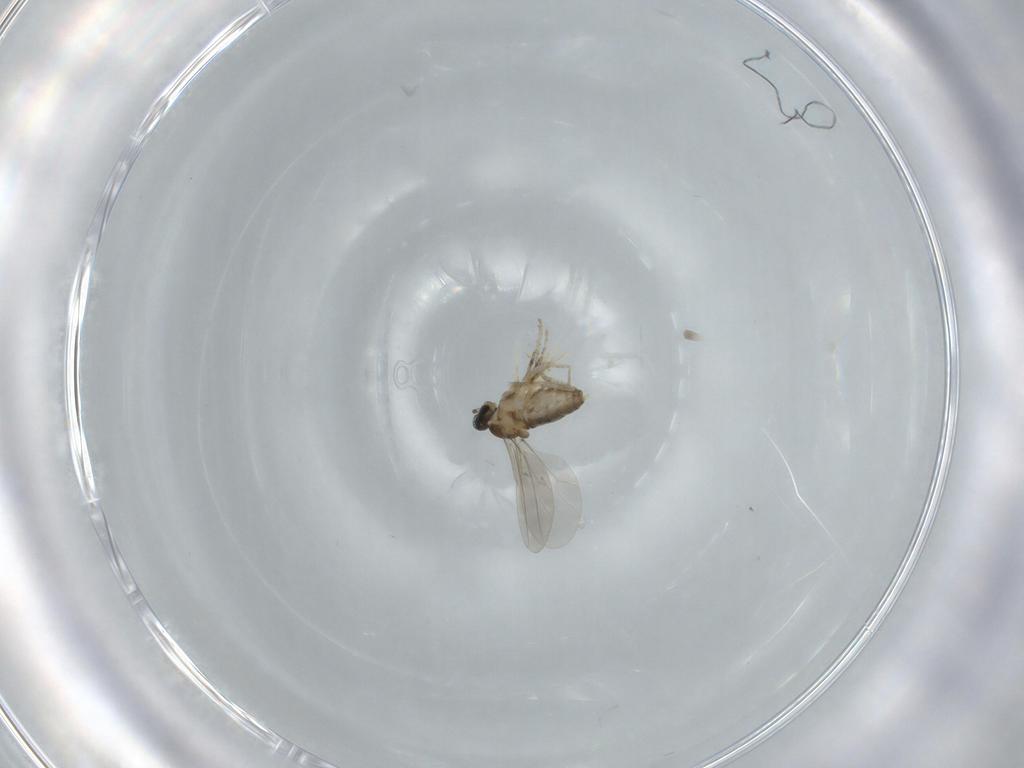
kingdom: Animalia
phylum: Arthropoda
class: Insecta
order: Diptera
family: Cecidomyiidae
